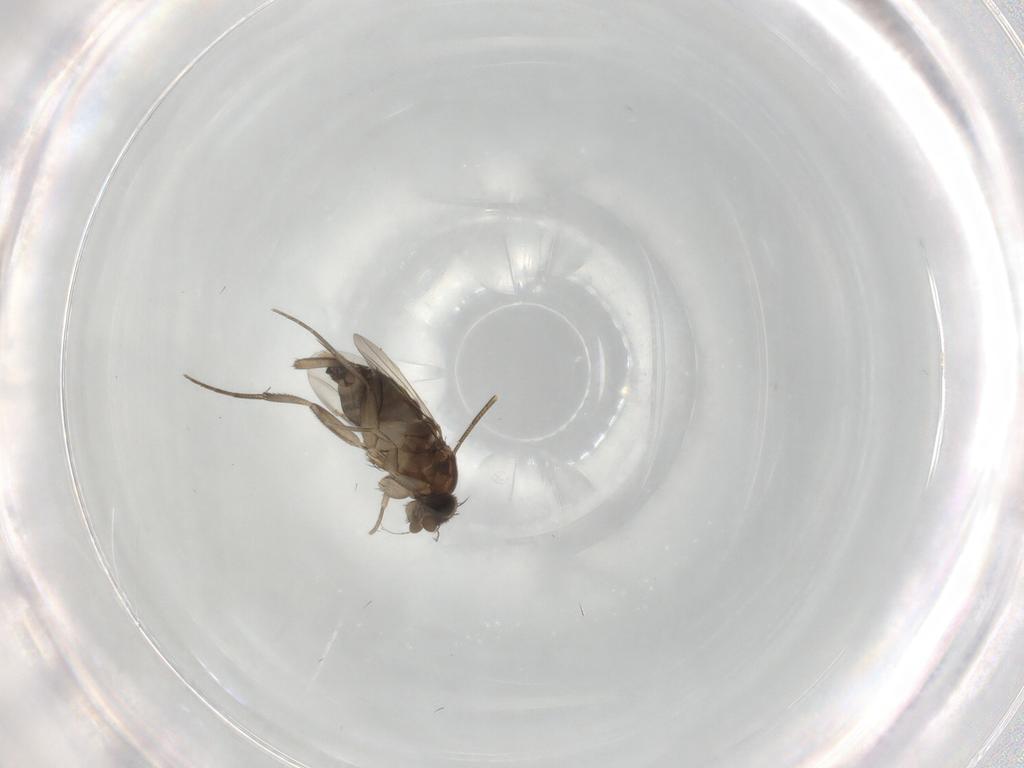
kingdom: Animalia
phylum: Arthropoda
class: Insecta
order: Diptera
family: Phoridae
